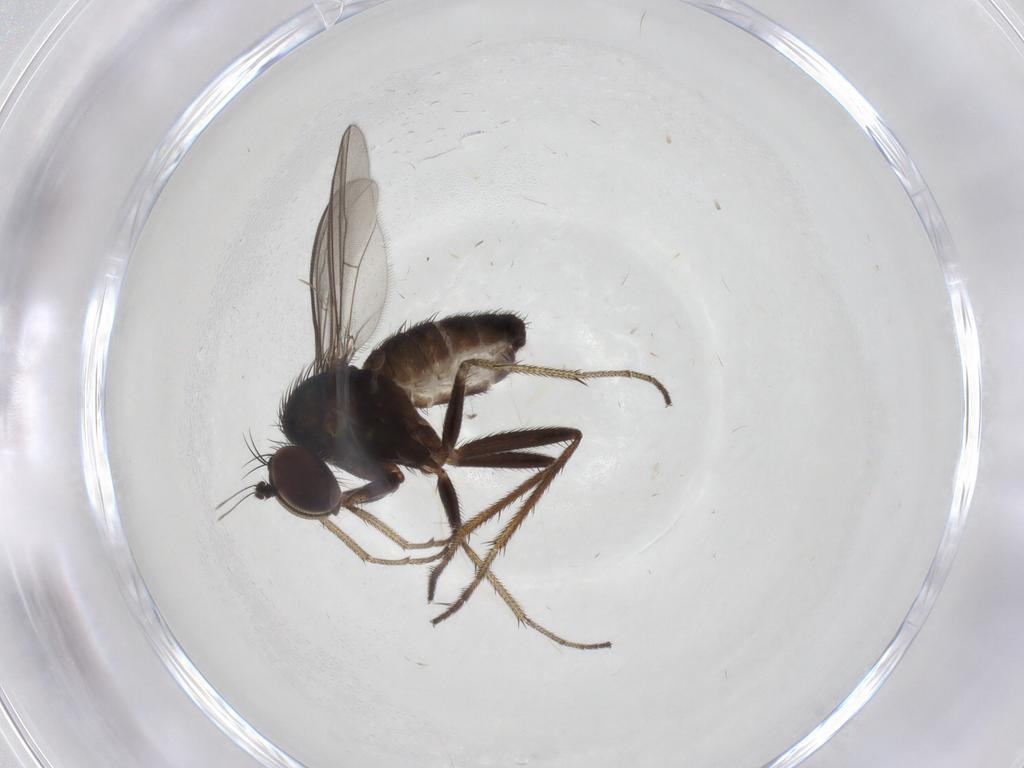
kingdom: Animalia
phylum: Arthropoda
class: Insecta
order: Diptera
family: Dolichopodidae
